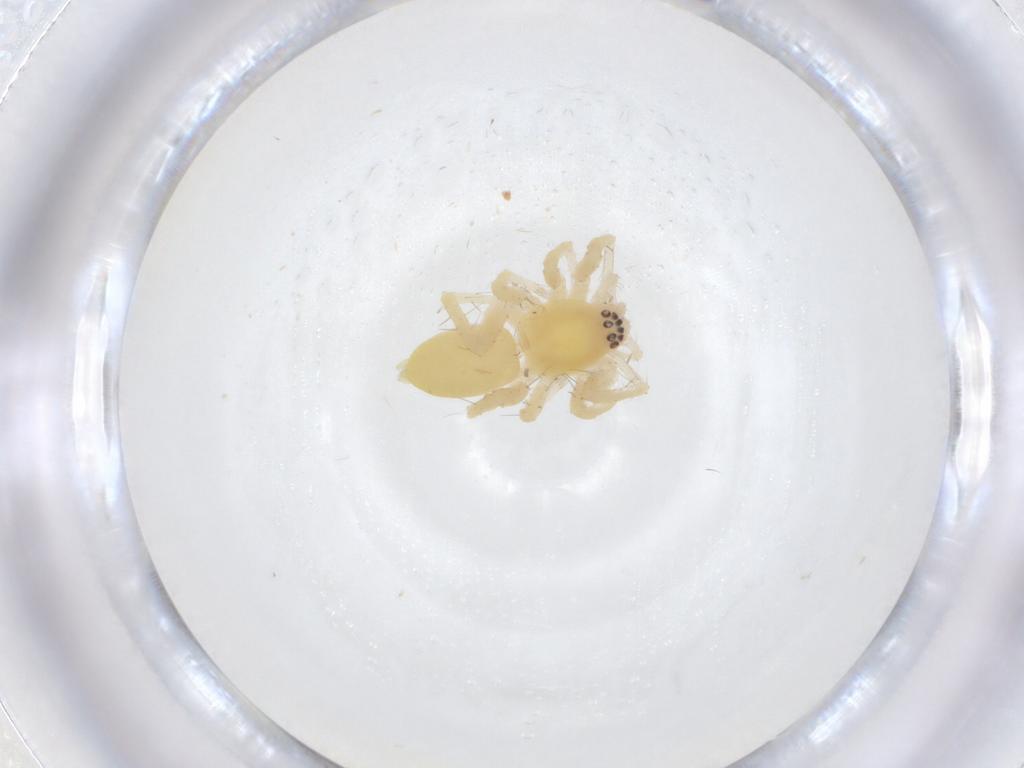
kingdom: Animalia
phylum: Arthropoda
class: Arachnida
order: Araneae
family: Anyphaenidae
